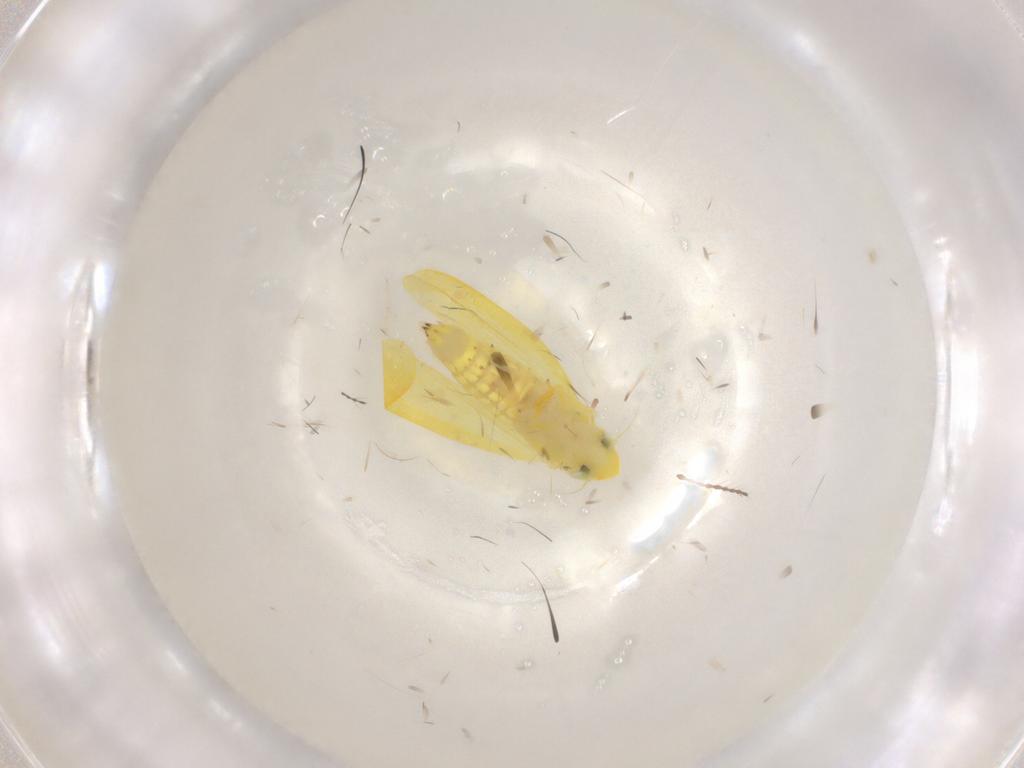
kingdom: Animalia
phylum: Arthropoda
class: Insecta
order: Hemiptera
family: Cicadellidae
